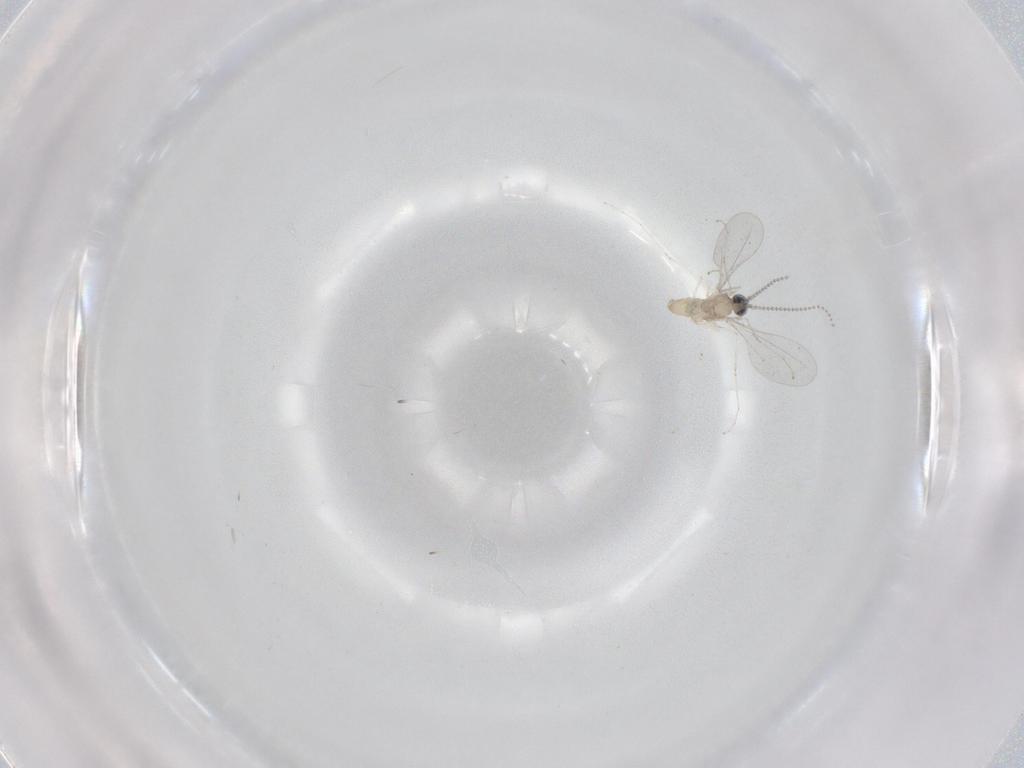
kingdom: Animalia
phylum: Arthropoda
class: Insecta
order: Diptera
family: Cecidomyiidae
